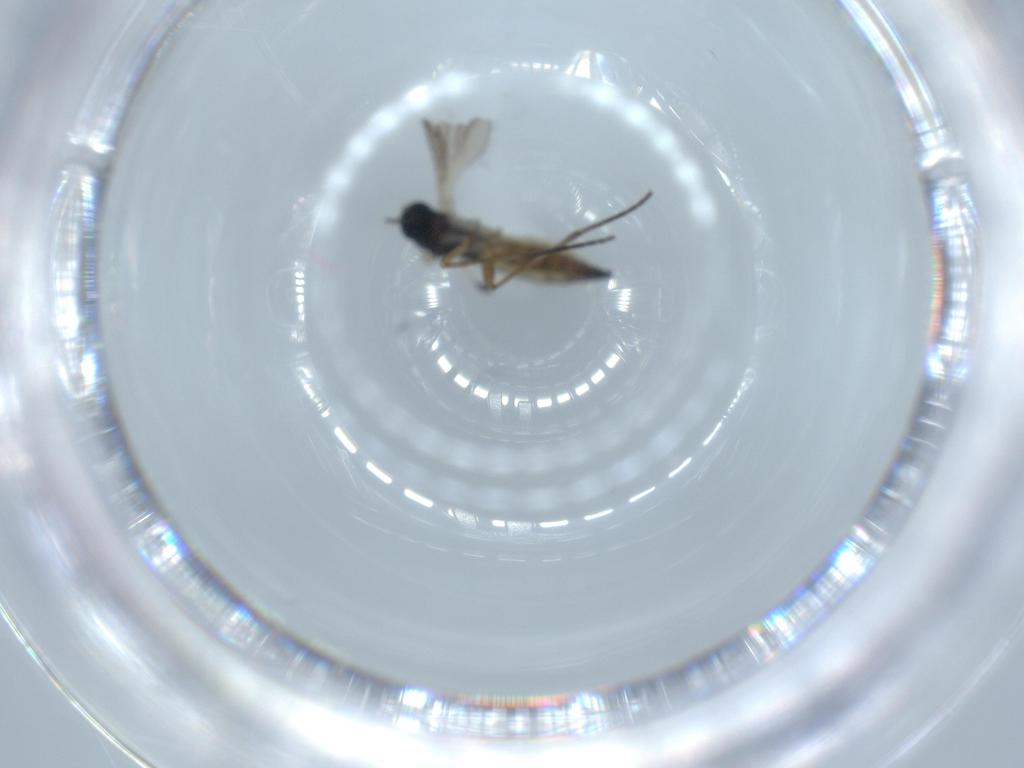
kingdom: Animalia
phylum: Arthropoda
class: Insecta
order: Diptera
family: Sciaridae
